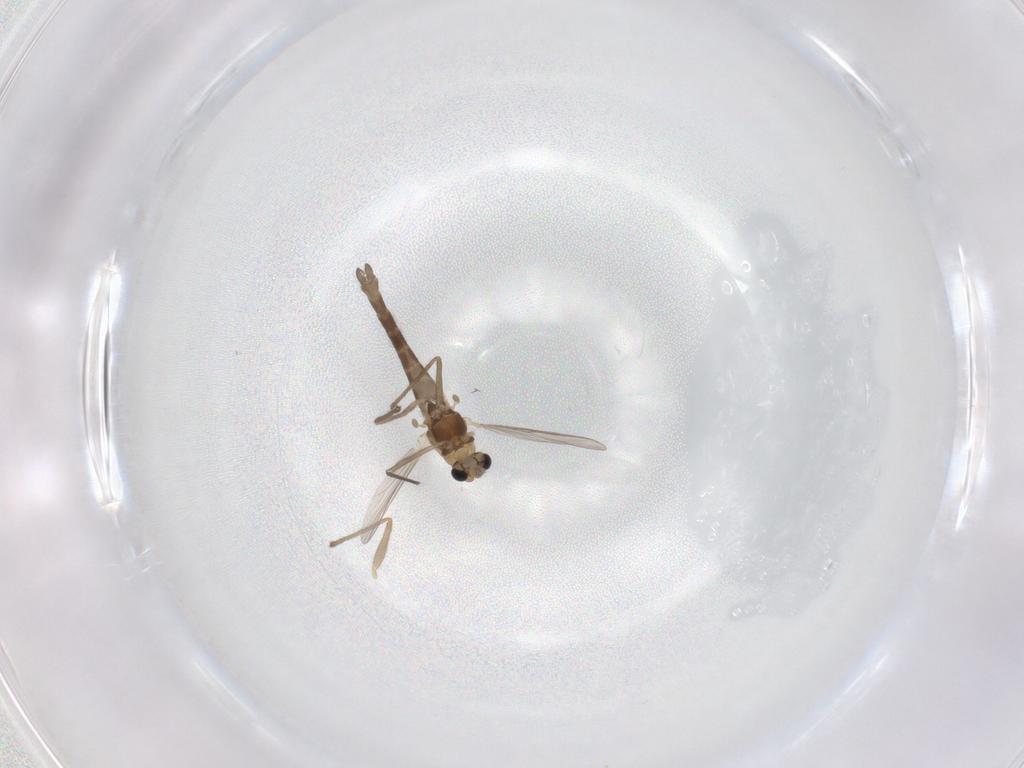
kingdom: Animalia
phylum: Arthropoda
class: Insecta
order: Diptera
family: Chironomidae
